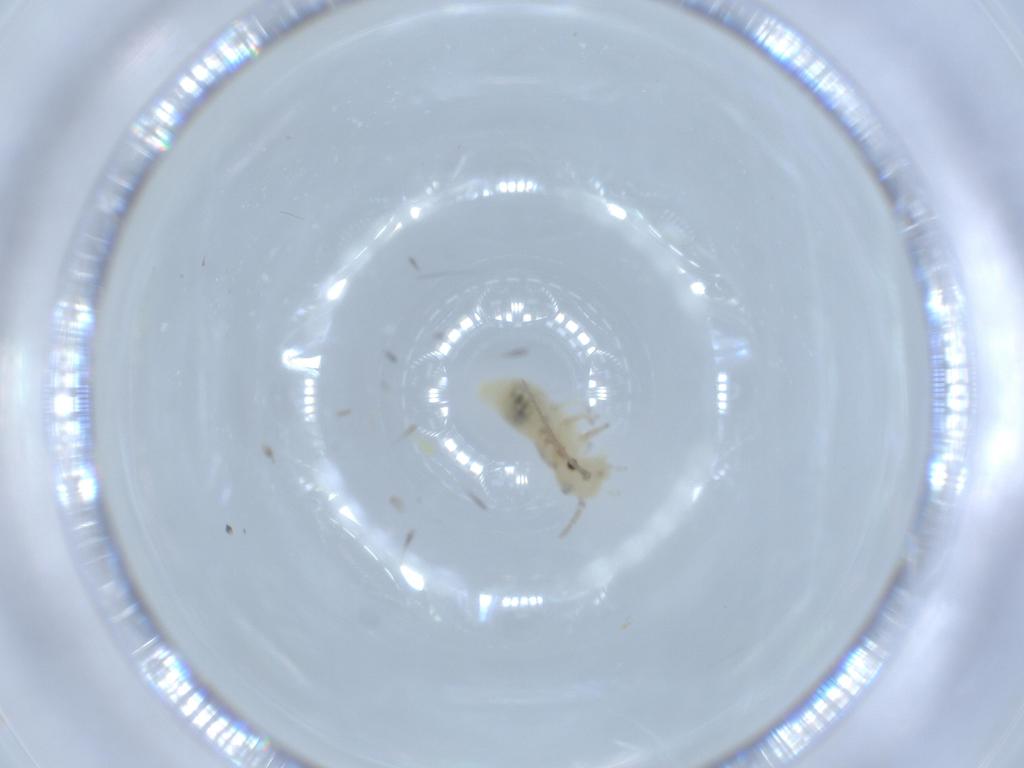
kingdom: Animalia
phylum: Arthropoda
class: Insecta
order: Psocodea
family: Caeciliusidae
